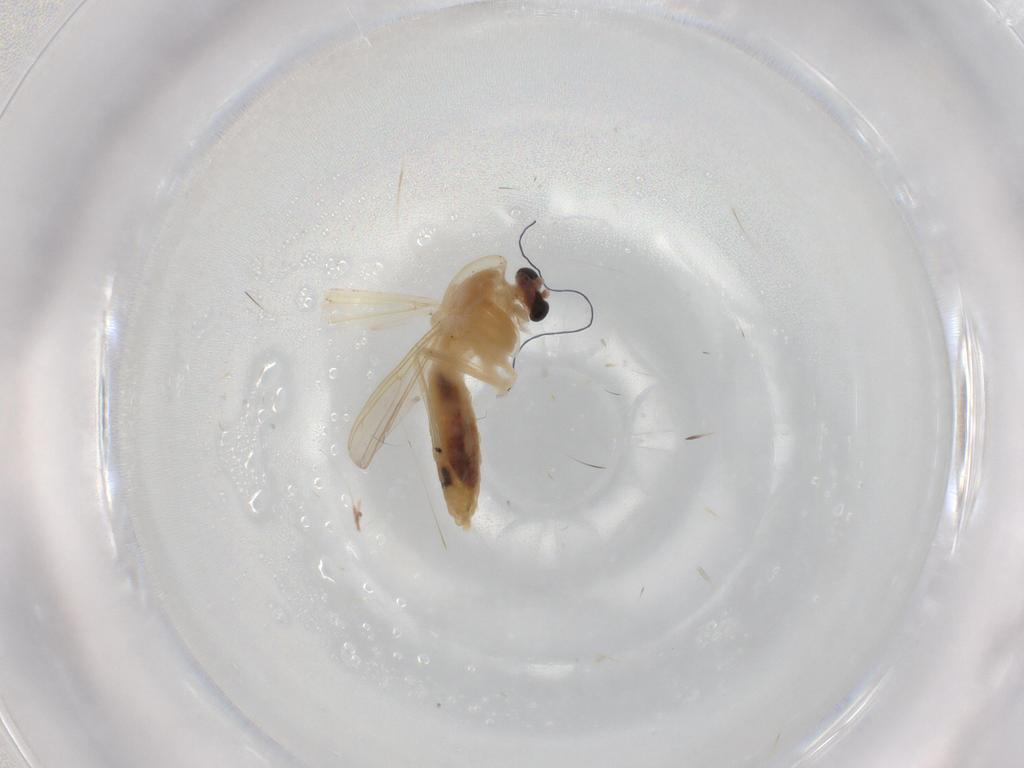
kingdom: Animalia
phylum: Arthropoda
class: Insecta
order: Diptera
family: Chironomidae
